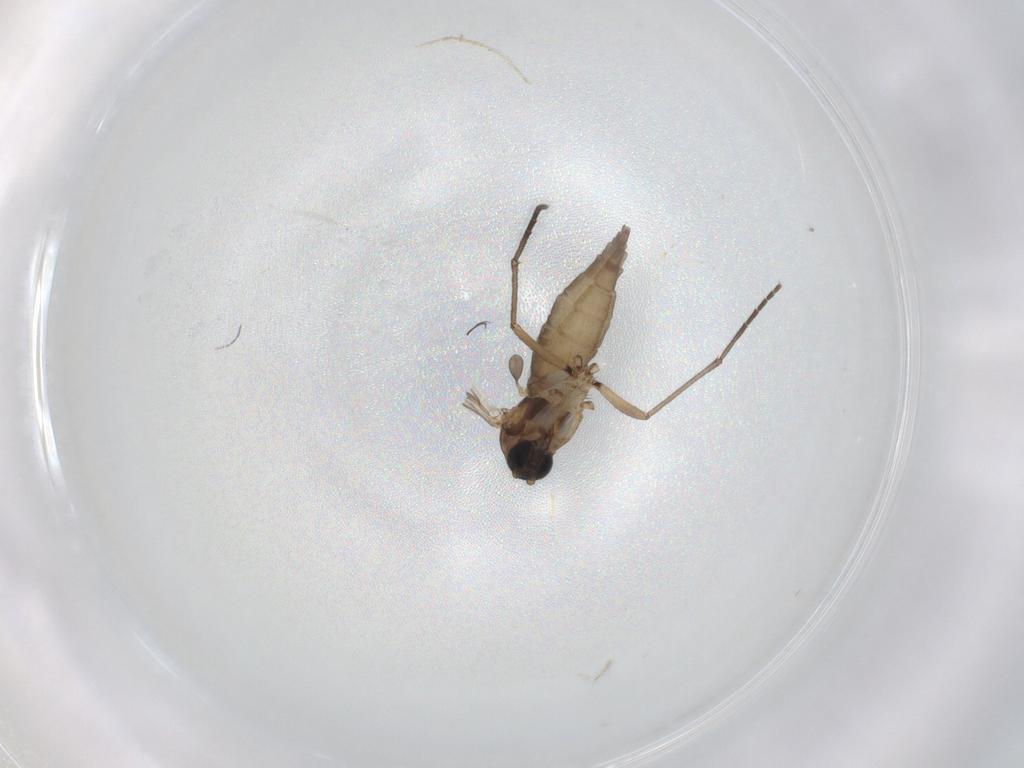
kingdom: Animalia
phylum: Arthropoda
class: Insecta
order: Diptera
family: Sciaridae
